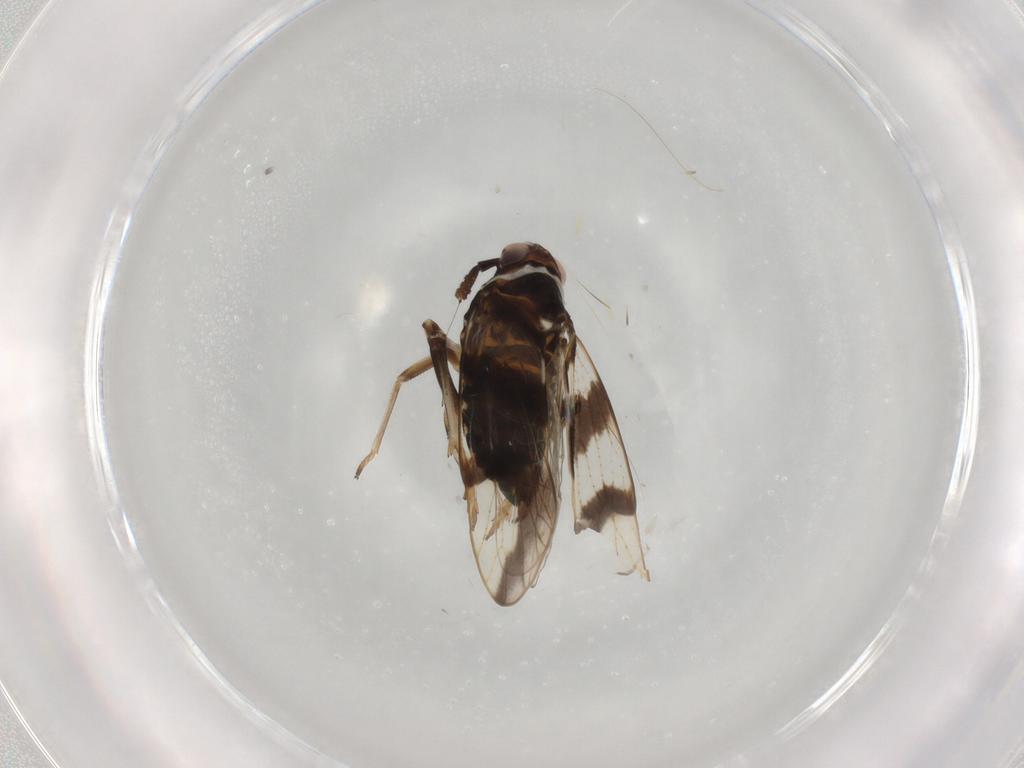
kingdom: Animalia
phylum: Arthropoda
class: Insecta
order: Hemiptera
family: Delphacidae
